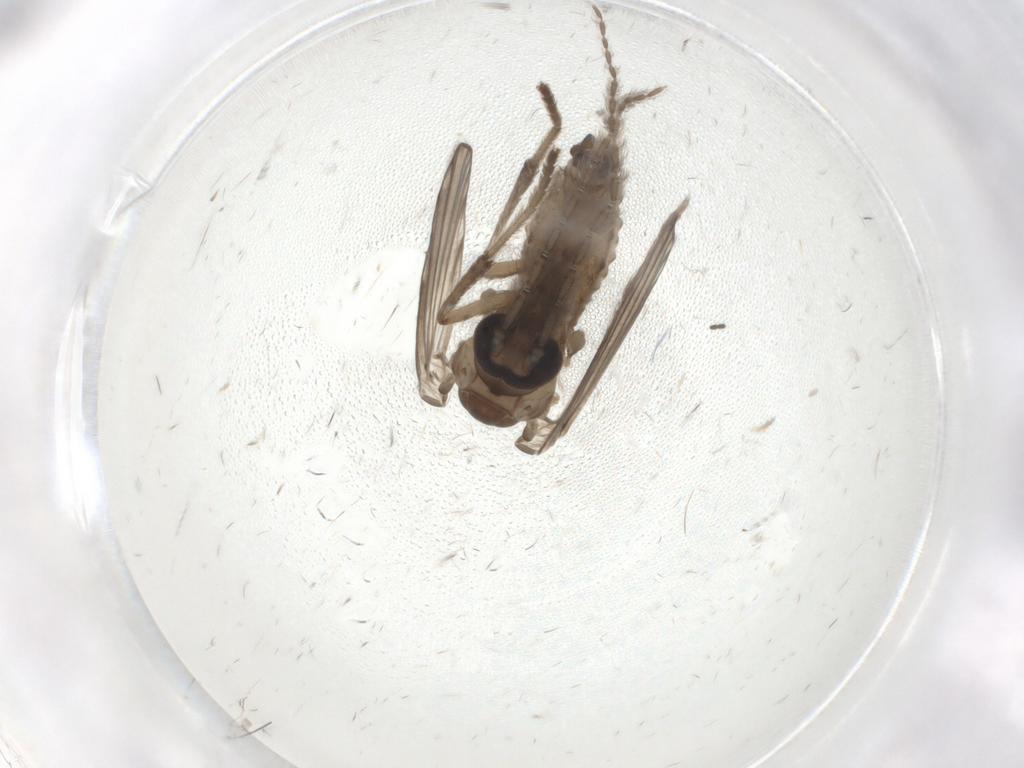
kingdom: Animalia
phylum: Arthropoda
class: Insecta
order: Diptera
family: Psychodidae
